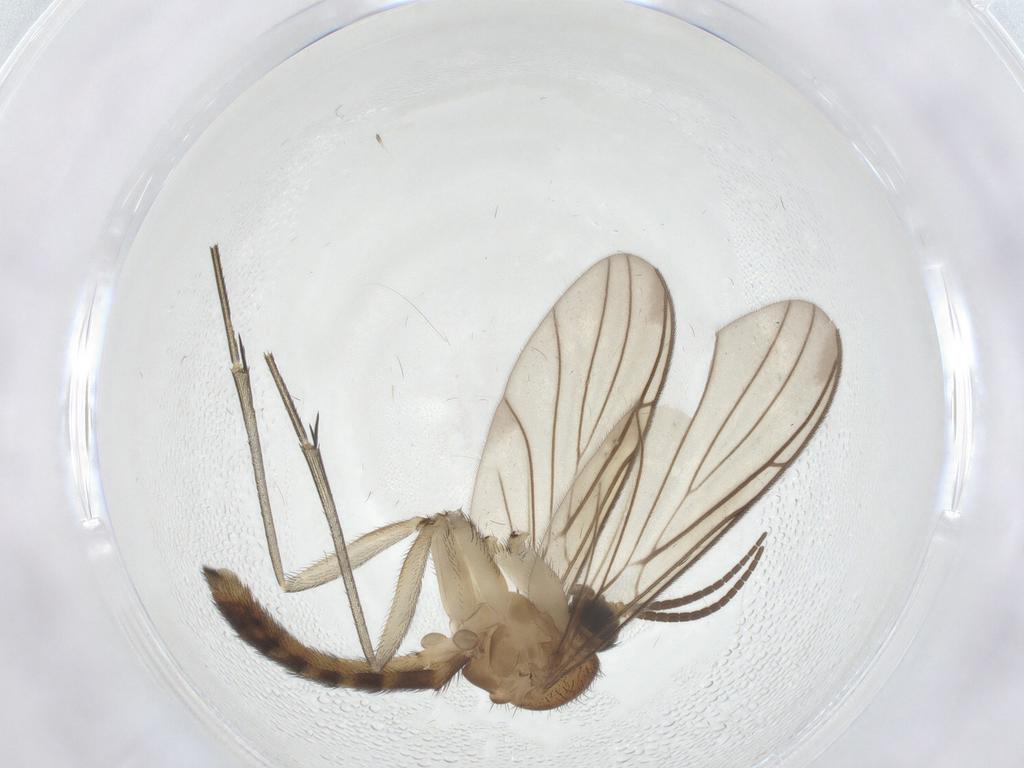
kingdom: Animalia
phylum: Arthropoda
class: Insecta
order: Diptera
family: Keroplatidae
